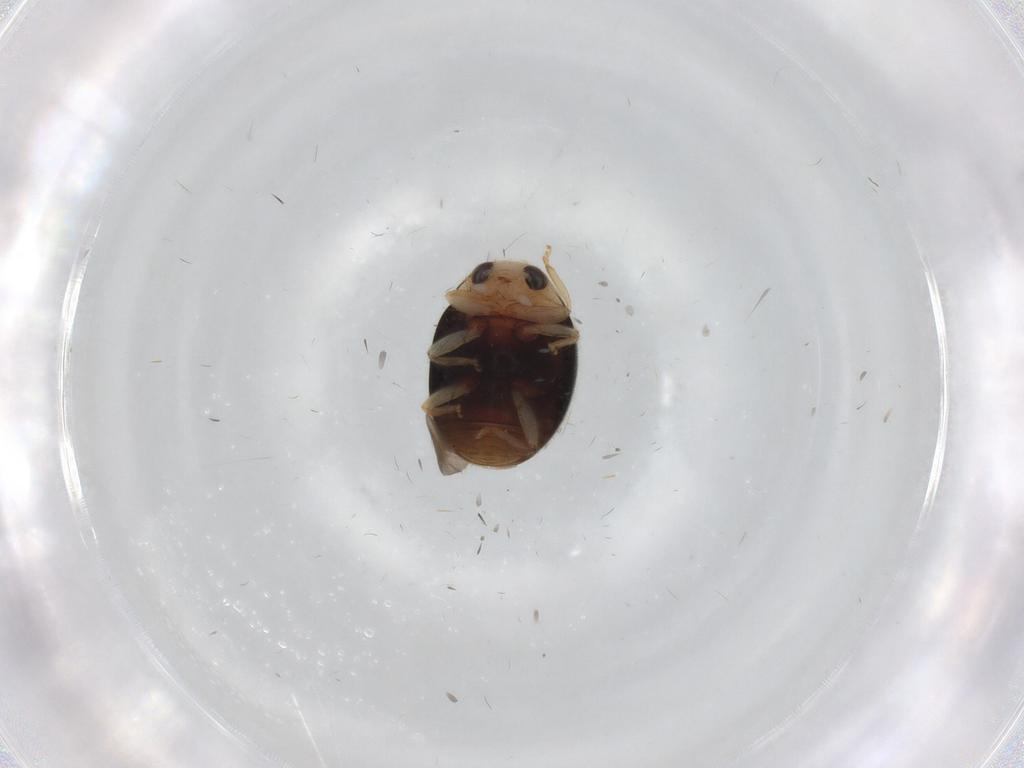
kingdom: Animalia
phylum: Arthropoda
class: Insecta
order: Coleoptera
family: Coccinellidae
